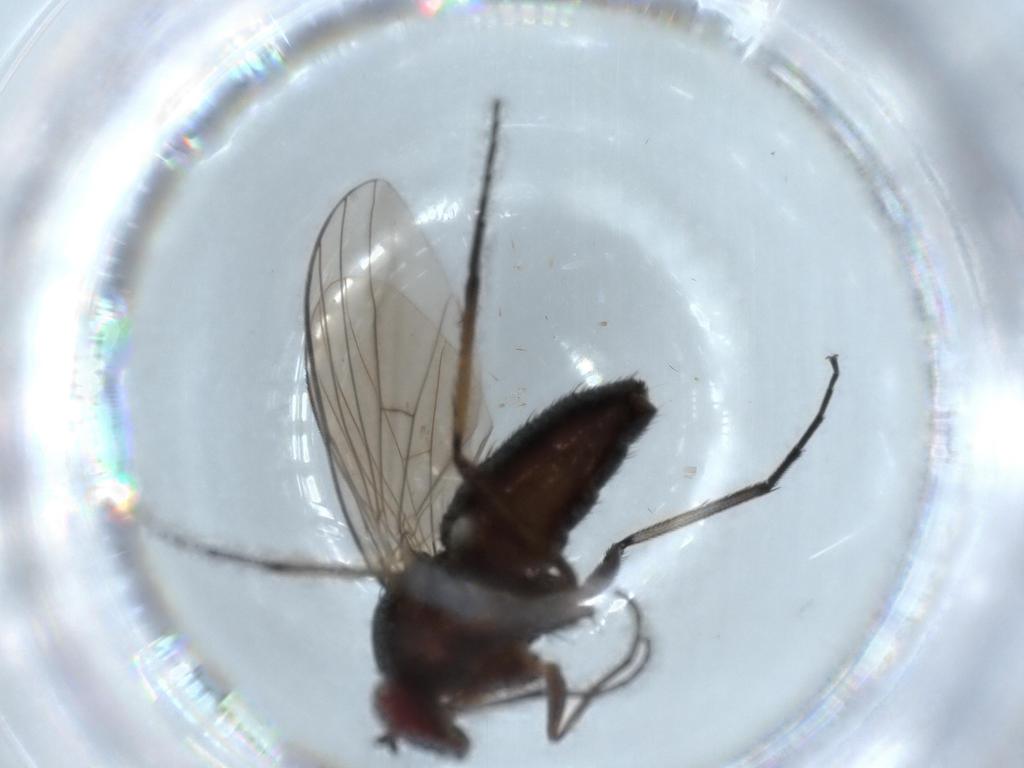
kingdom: Animalia
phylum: Arthropoda
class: Insecta
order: Diptera
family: Dolichopodidae
